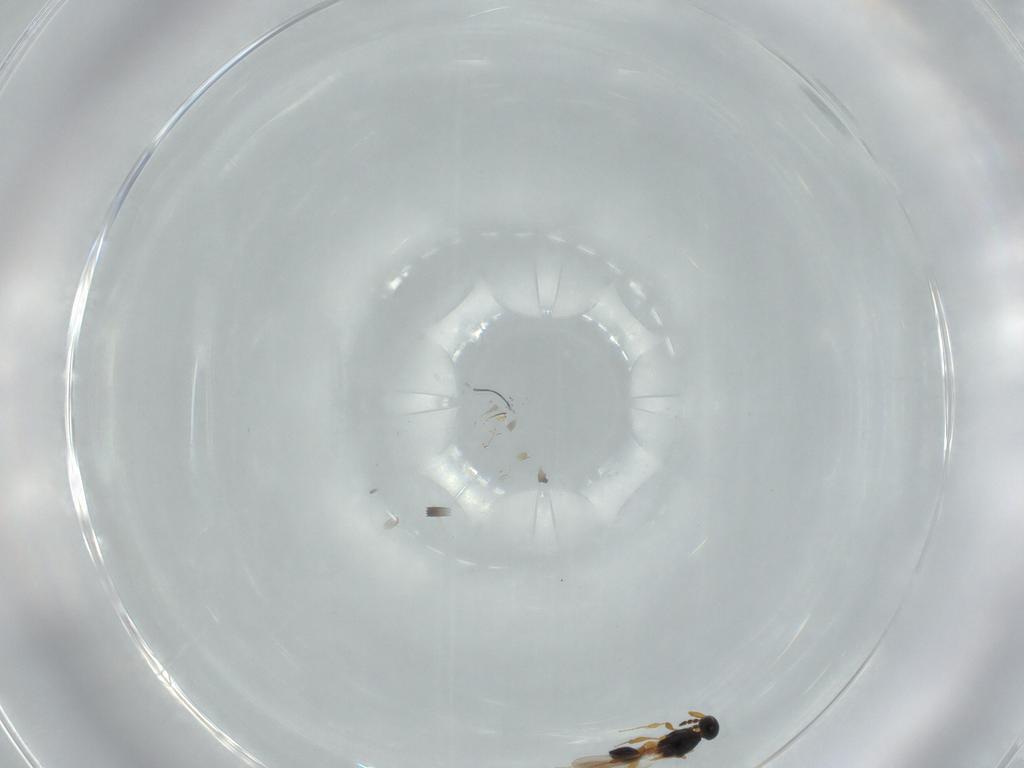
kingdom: Animalia
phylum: Arthropoda
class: Insecta
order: Hymenoptera
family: Platygastridae
